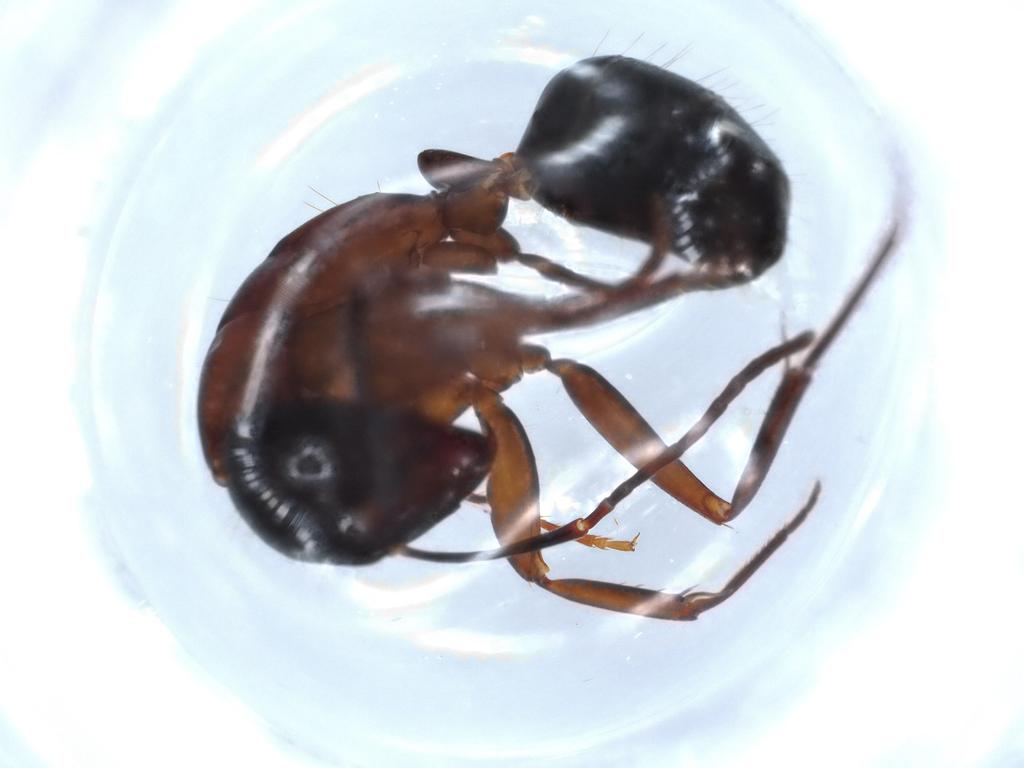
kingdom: Animalia
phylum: Arthropoda
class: Insecta
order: Hymenoptera
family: Formicidae
